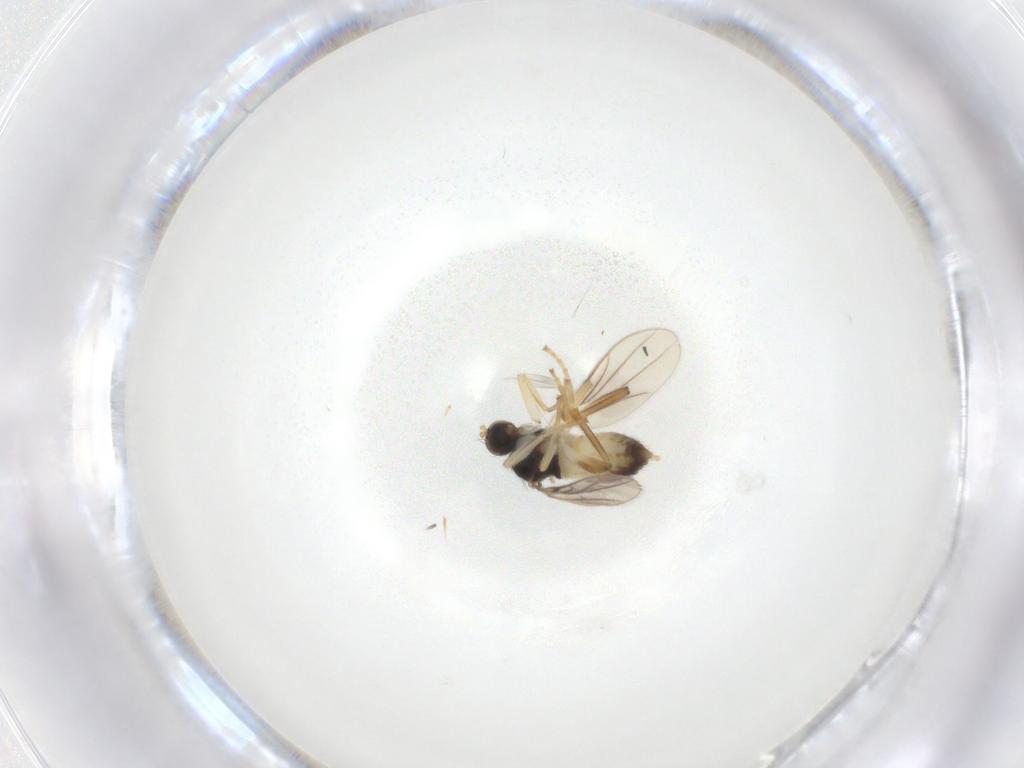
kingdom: Animalia
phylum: Arthropoda
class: Insecta
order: Diptera
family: Hybotidae
